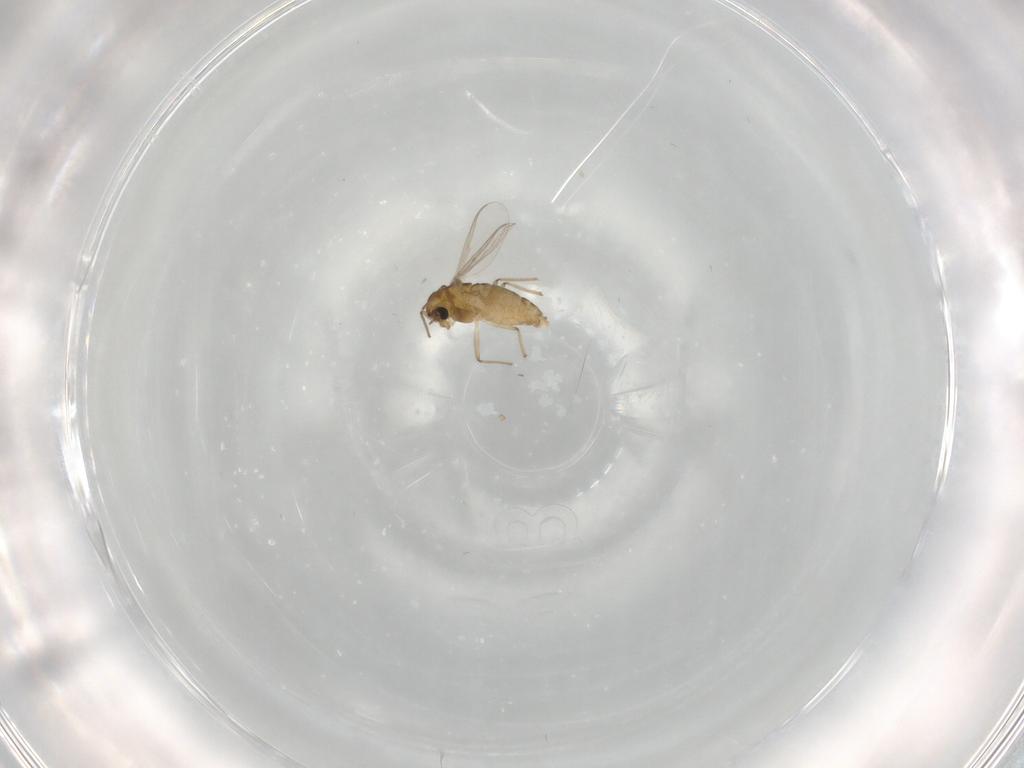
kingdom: Animalia
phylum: Arthropoda
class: Insecta
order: Diptera
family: Chironomidae
